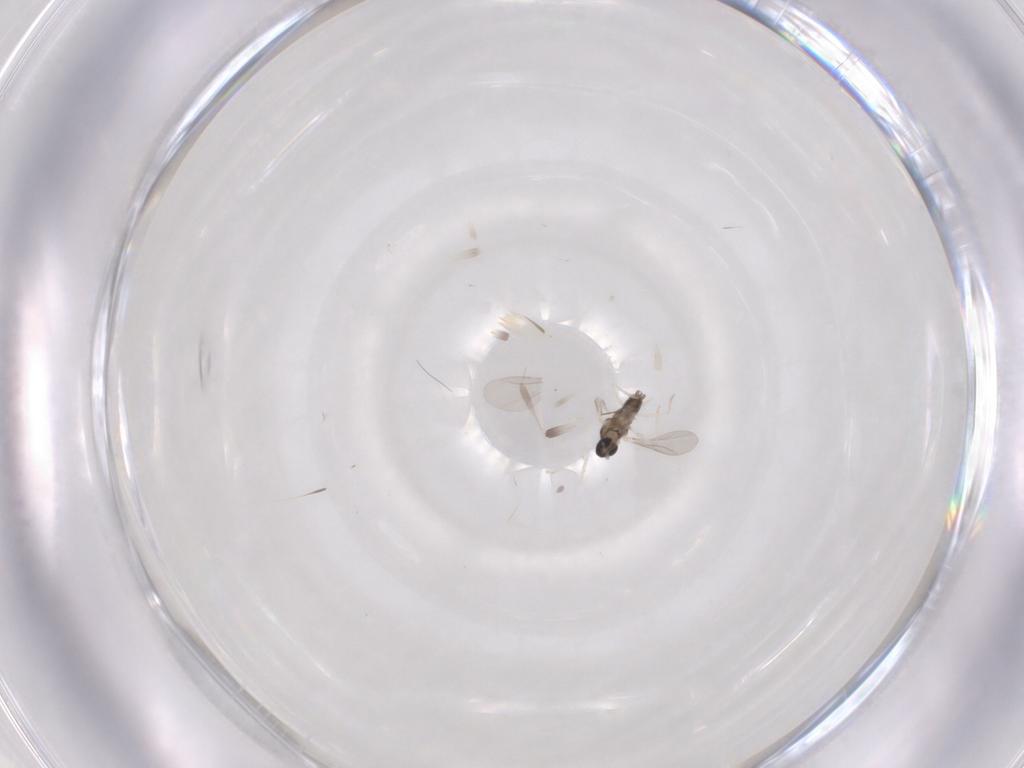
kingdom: Animalia
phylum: Arthropoda
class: Insecta
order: Diptera
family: Cecidomyiidae
